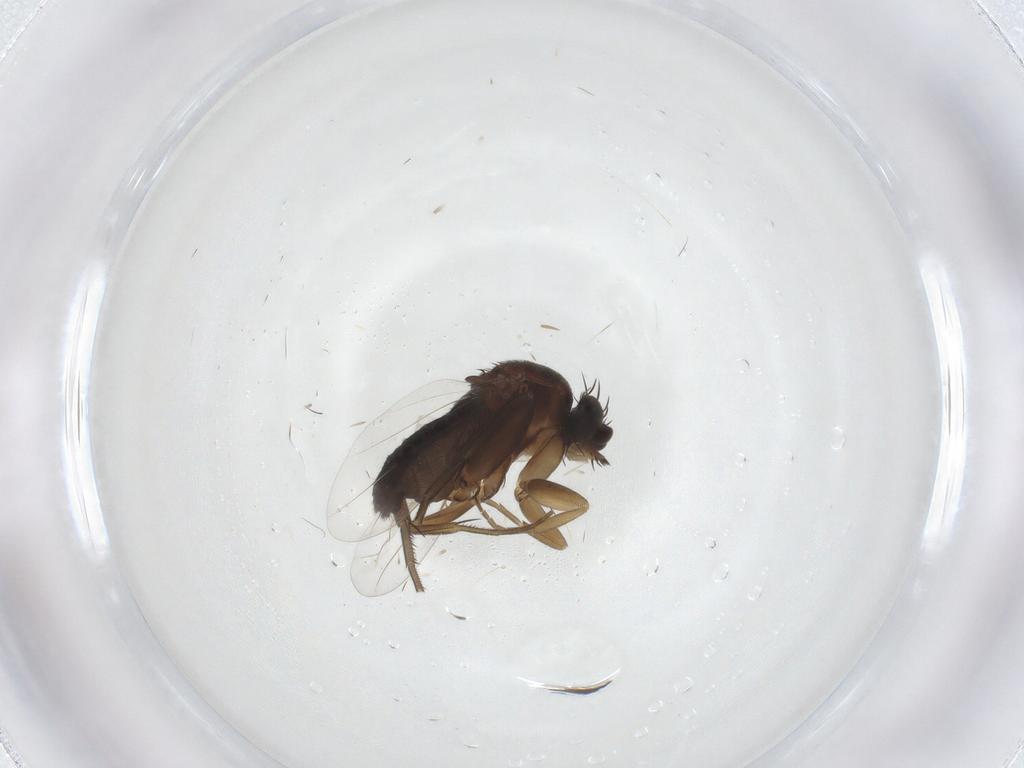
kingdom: Animalia
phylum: Arthropoda
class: Insecta
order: Diptera
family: Phoridae
